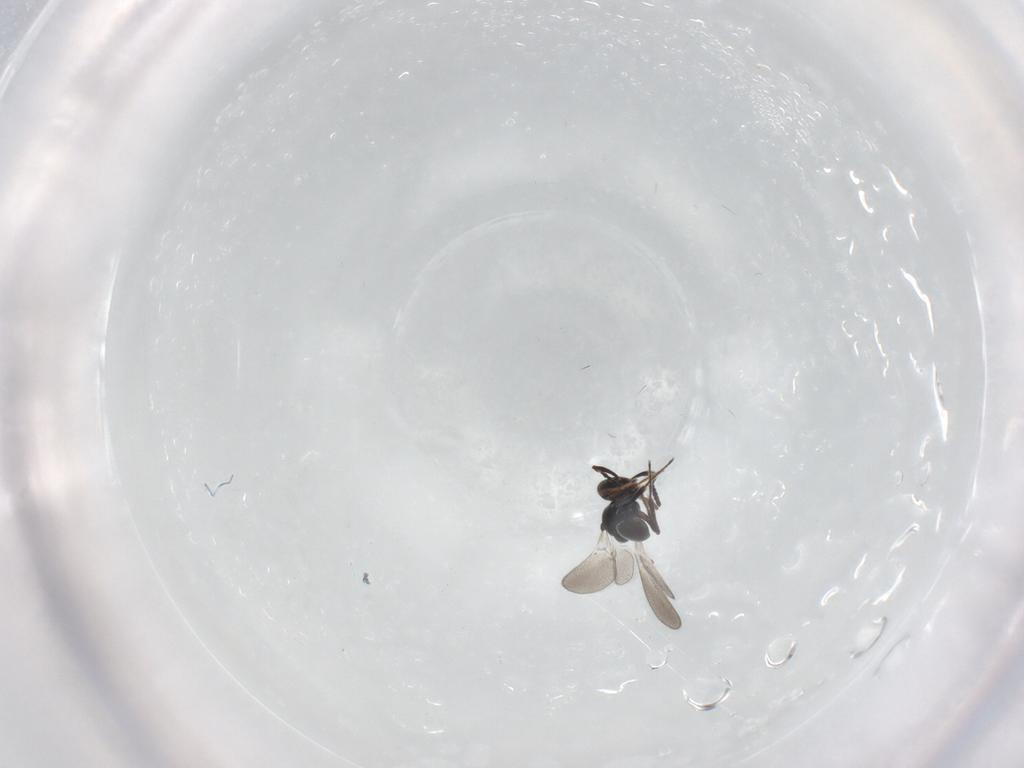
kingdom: Animalia
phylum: Arthropoda
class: Insecta
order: Hymenoptera
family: Platygastridae
